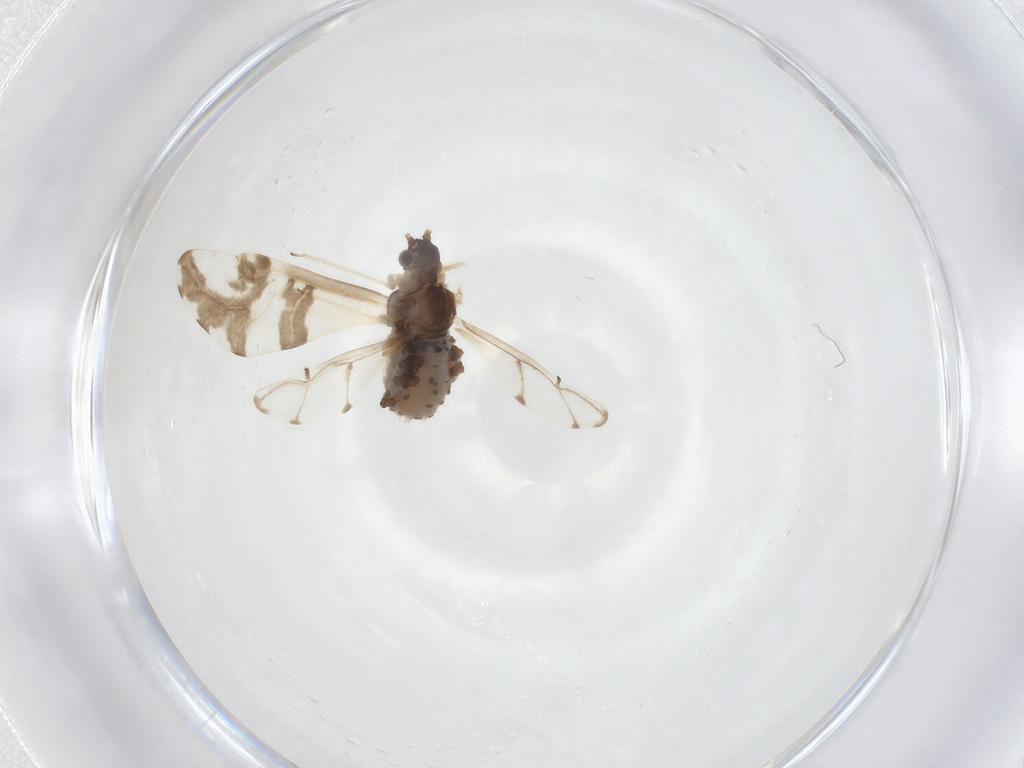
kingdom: Animalia
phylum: Arthropoda
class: Insecta
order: Hemiptera
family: Aphididae
